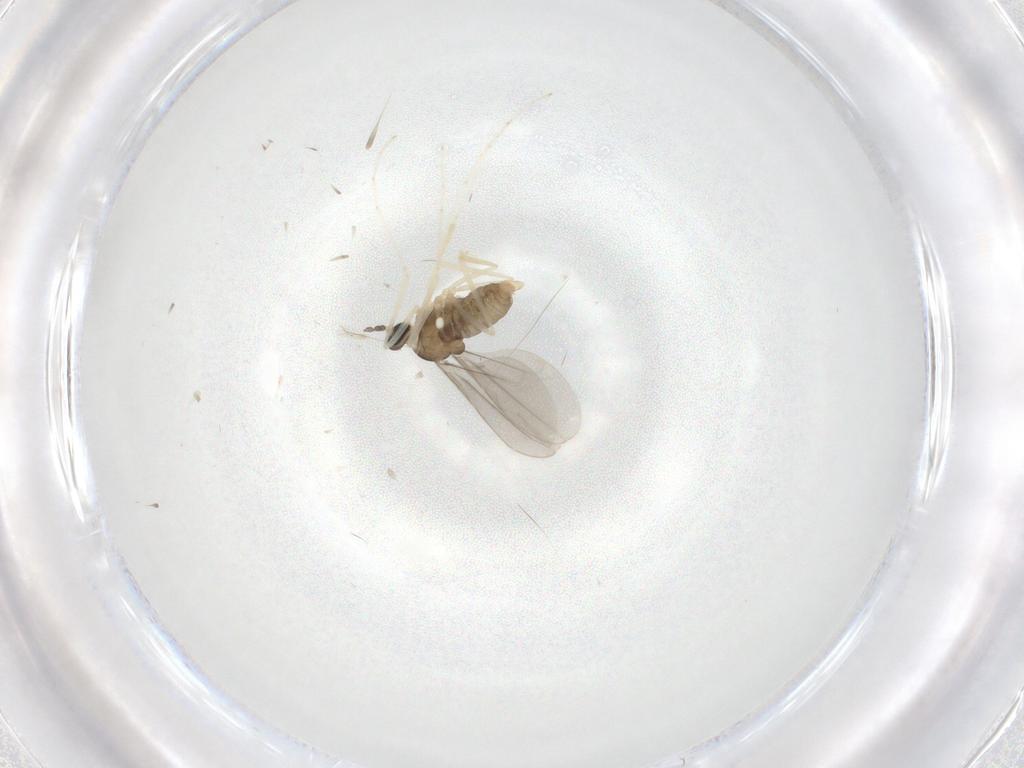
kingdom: Animalia
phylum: Arthropoda
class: Insecta
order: Diptera
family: Cecidomyiidae
